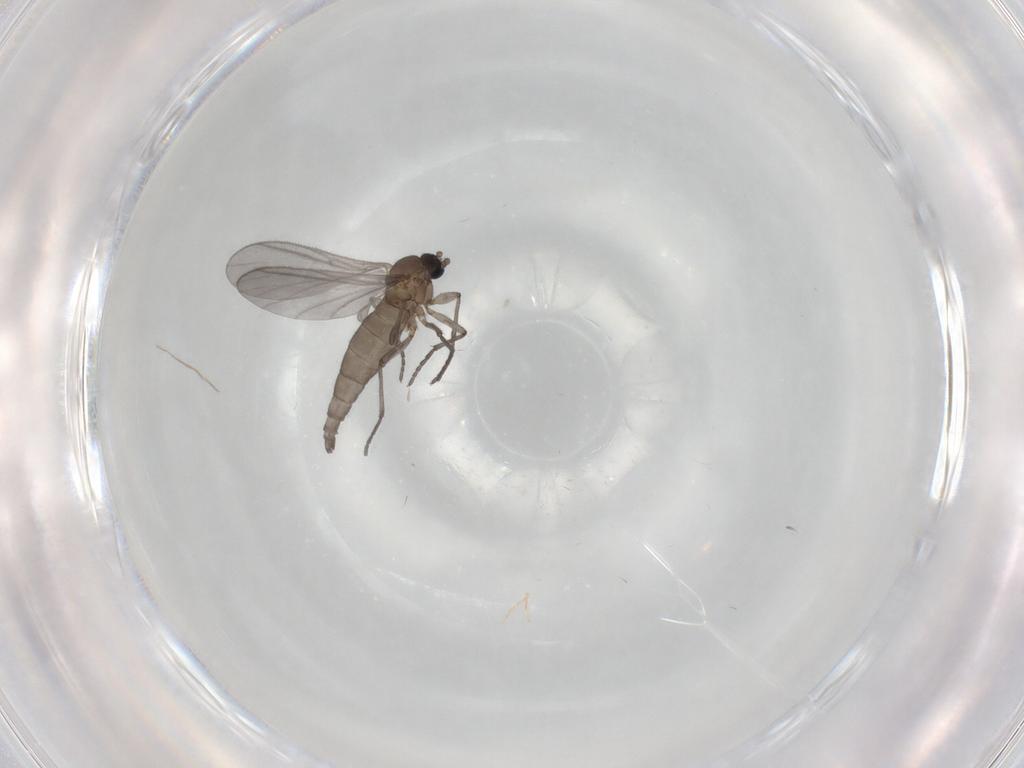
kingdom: Animalia
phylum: Arthropoda
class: Insecta
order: Diptera
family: Sciaridae
